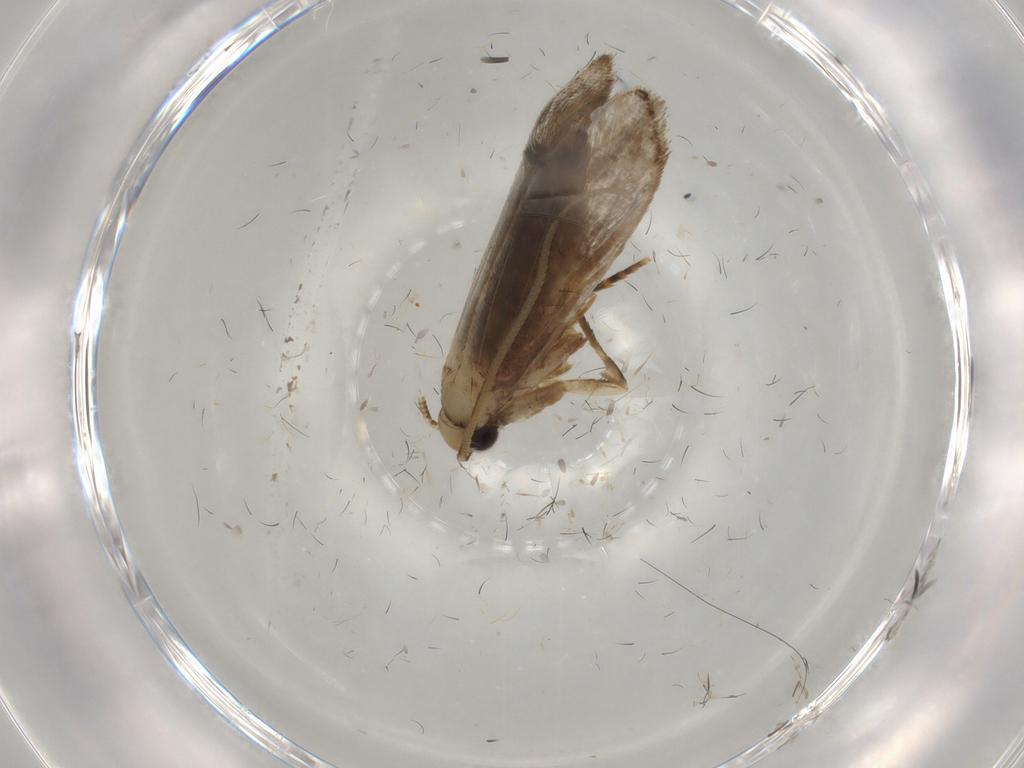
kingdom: Animalia
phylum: Arthropoda
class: Insecta
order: Lepidoptera
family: Tineidae
